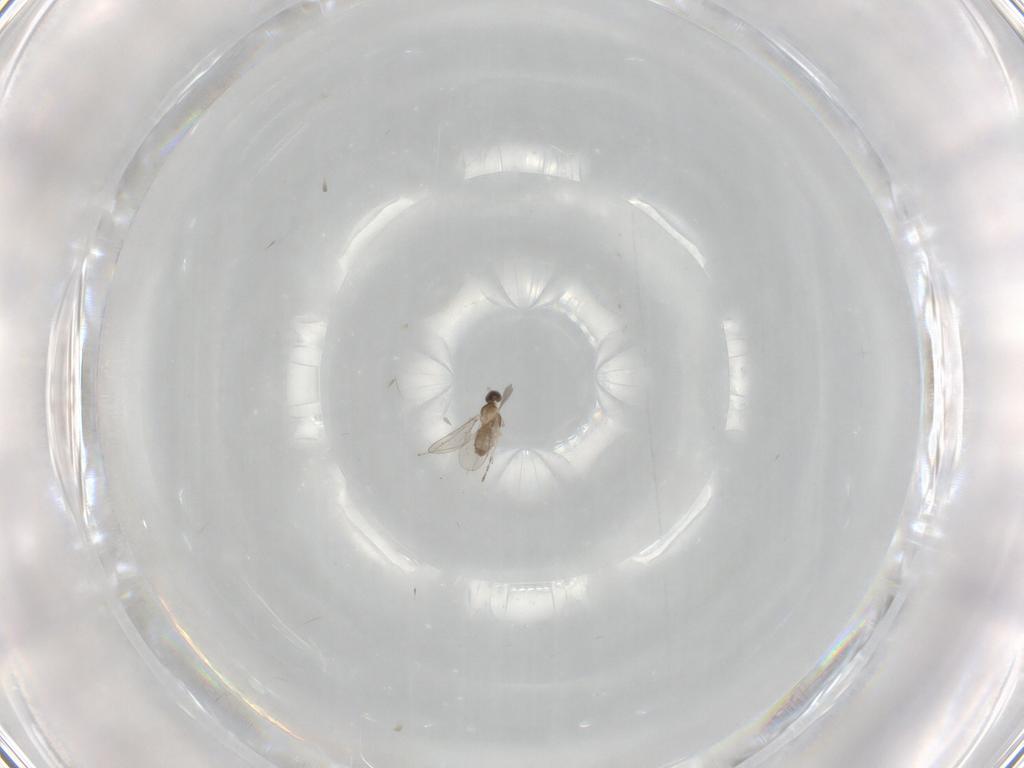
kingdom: Animalia
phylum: Arthropoda
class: Insecta
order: Diptera
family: Cecidomyiidae
